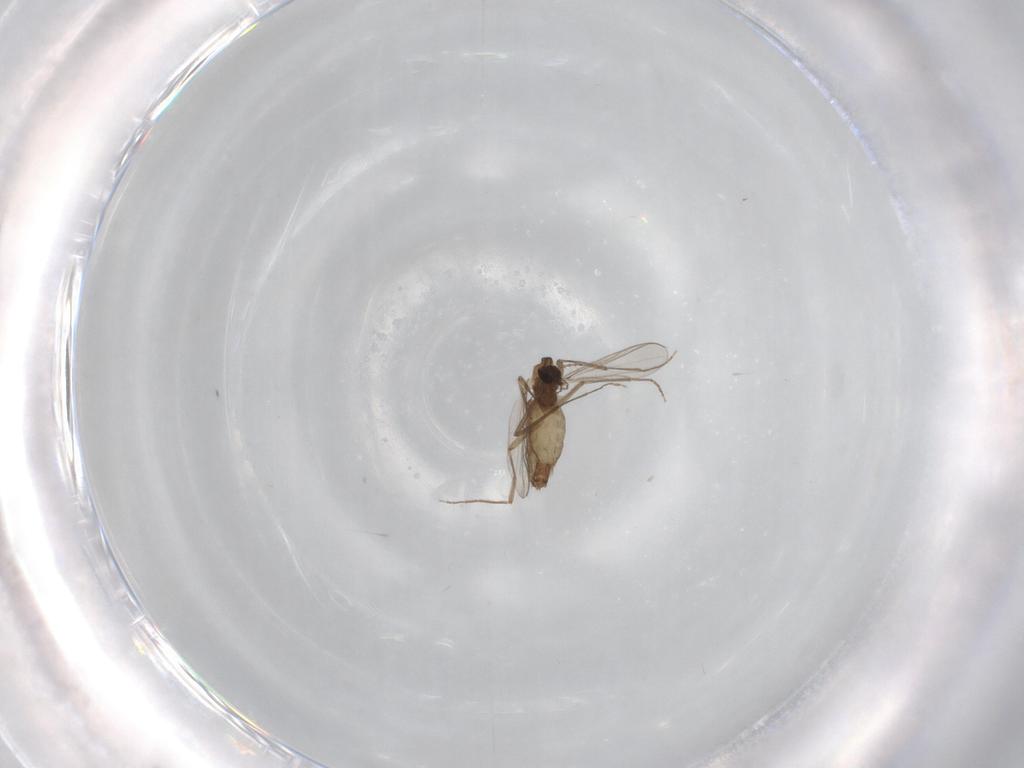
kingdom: Animalia
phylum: Arthropoda
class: Insecta
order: Diptera
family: Chironomidae
